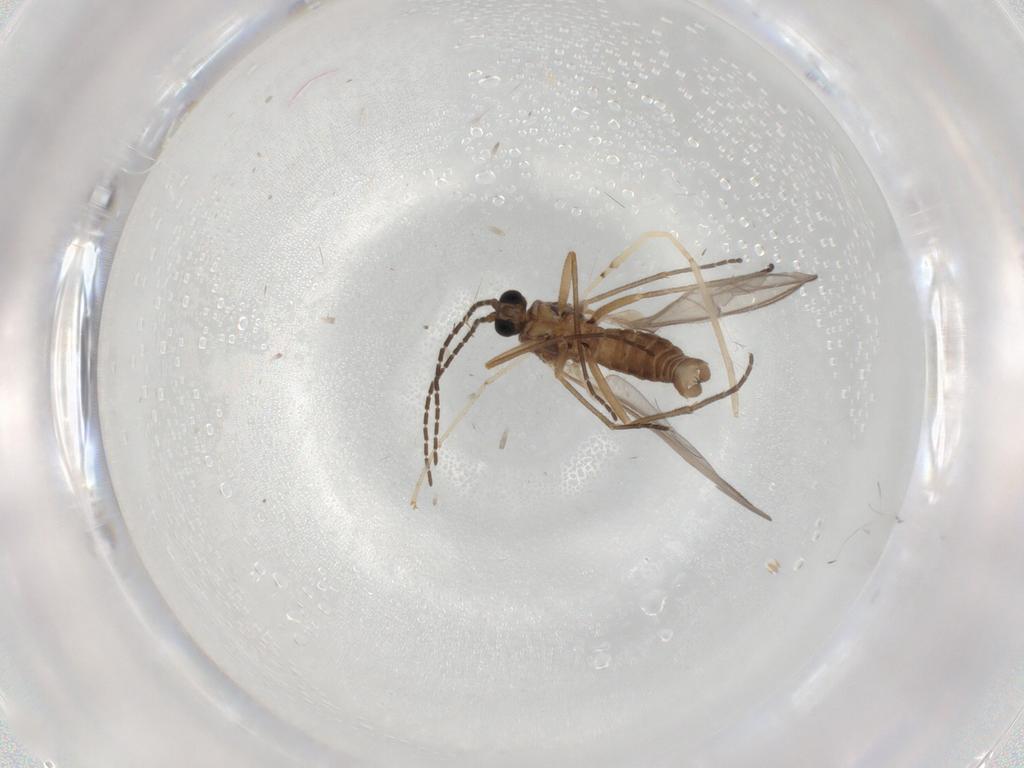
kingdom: Animalia
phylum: Arthropoda
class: Insecta
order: Diptera
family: Sciaridae
